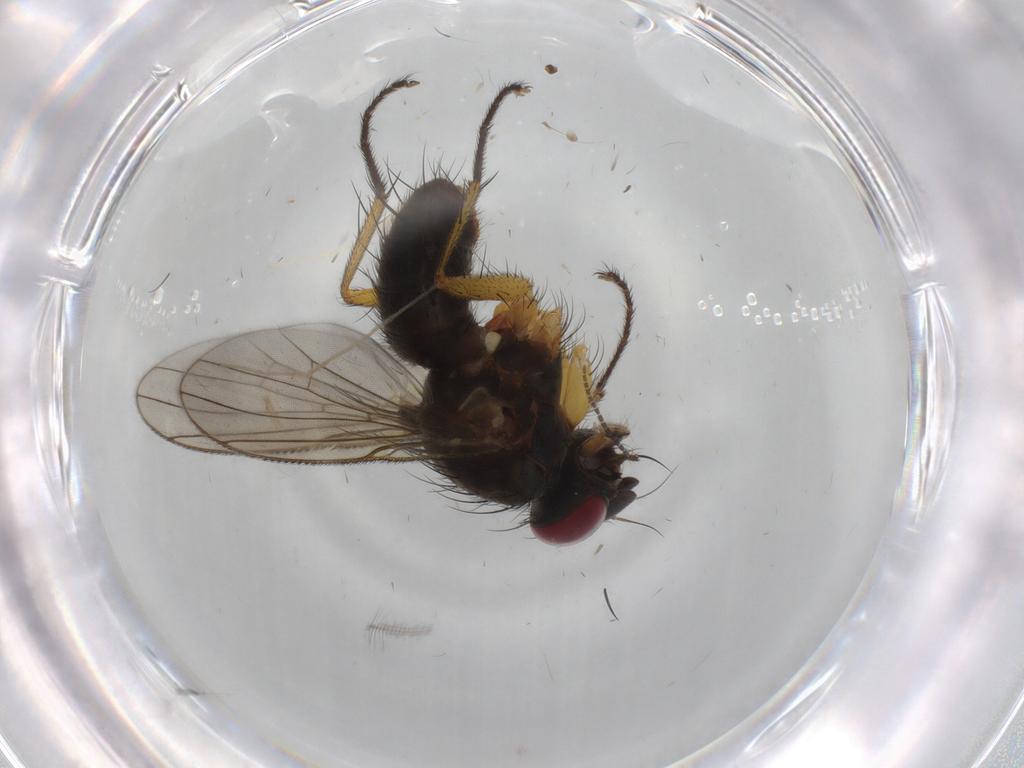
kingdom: Animalia
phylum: Arthropoda
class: Insecta
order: Diptera
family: Muscidae
